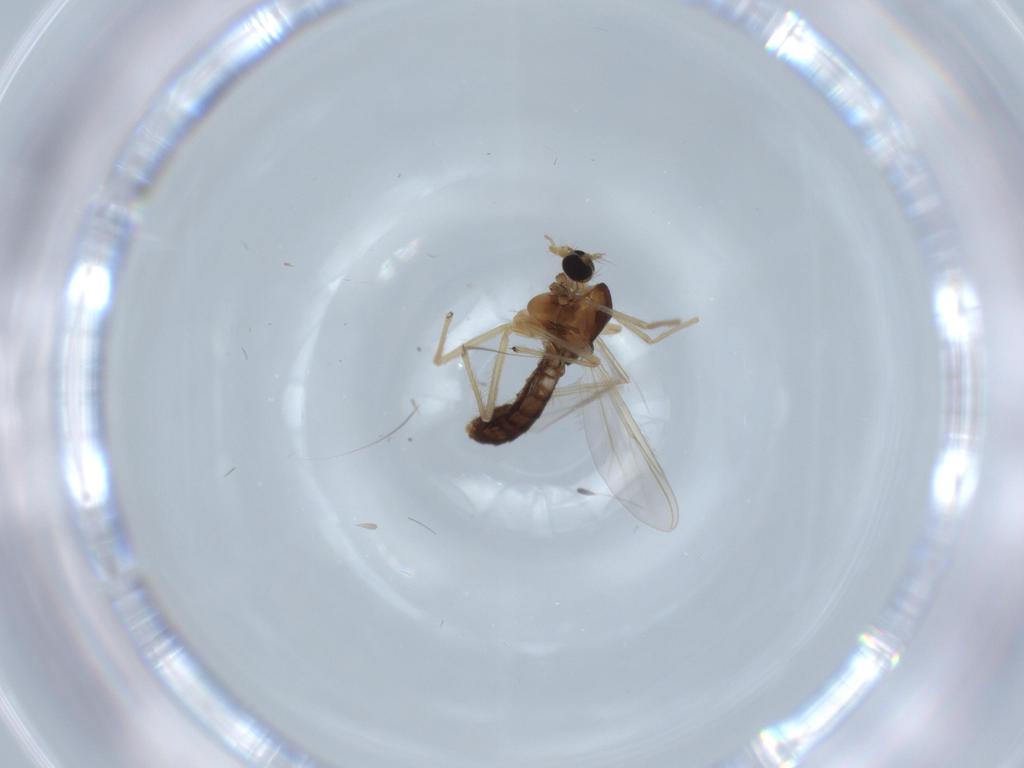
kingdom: Animalia
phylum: Arthropoda
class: Insecta
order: Diptera
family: Chironomidae
